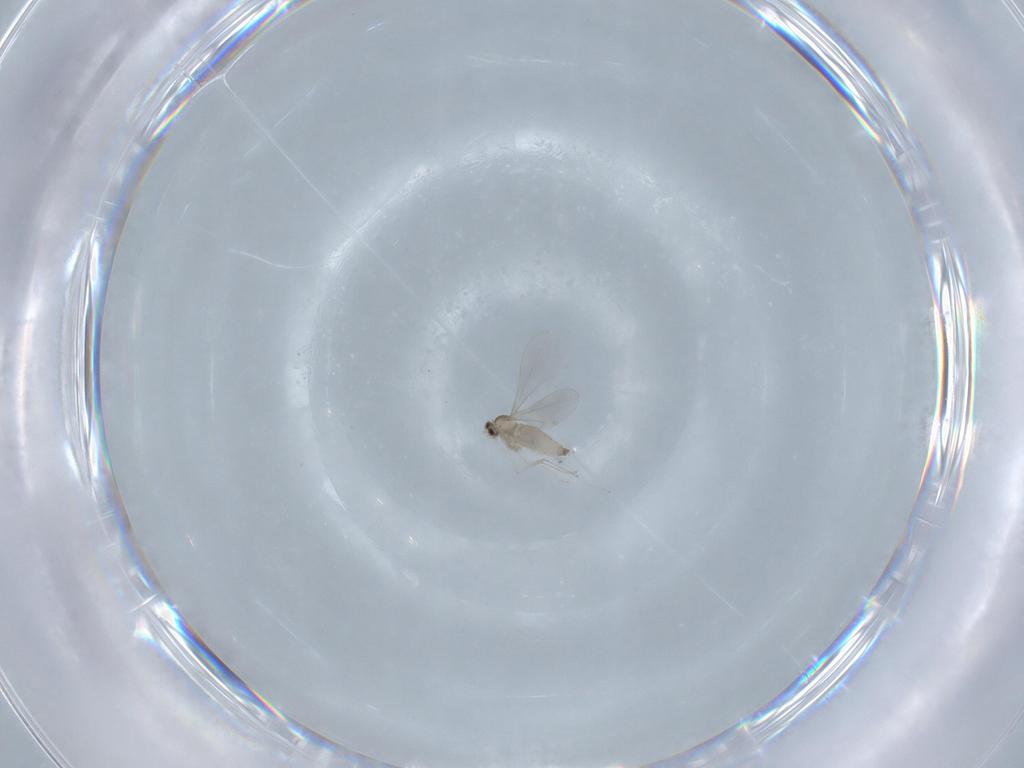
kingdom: Animalia
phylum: Arthropoda
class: Insecta
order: Diptera
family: Cecidomyiidae
